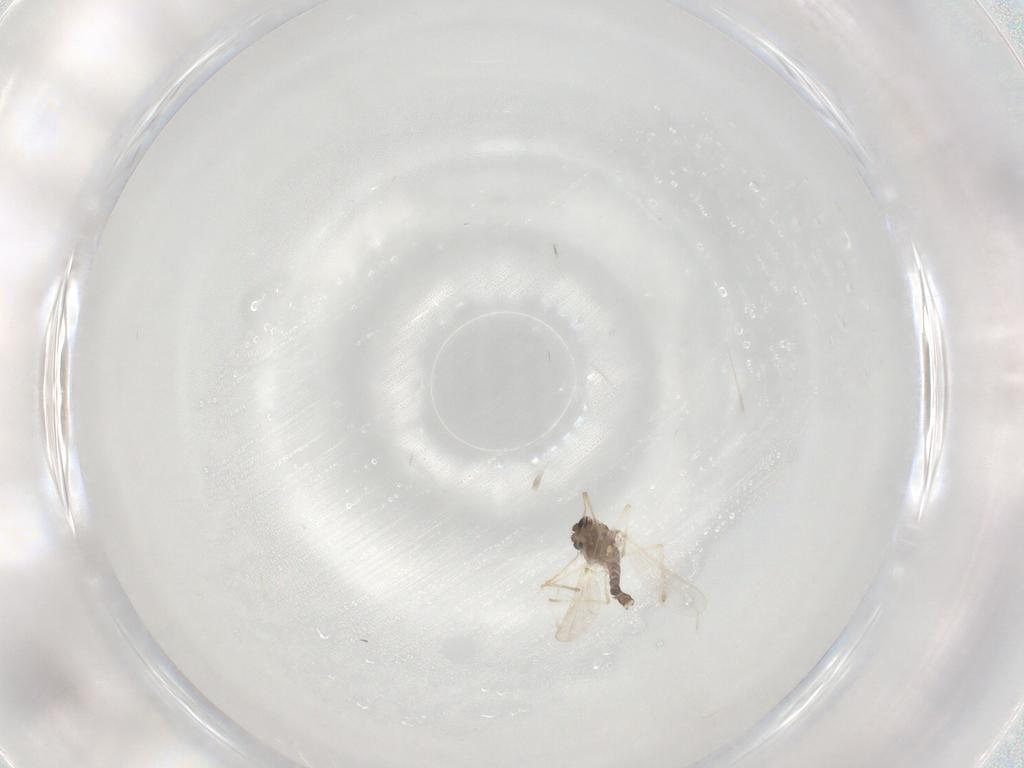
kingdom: Animalia
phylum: Arthropoda
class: Insecta
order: Diptera
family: Chironomidae
